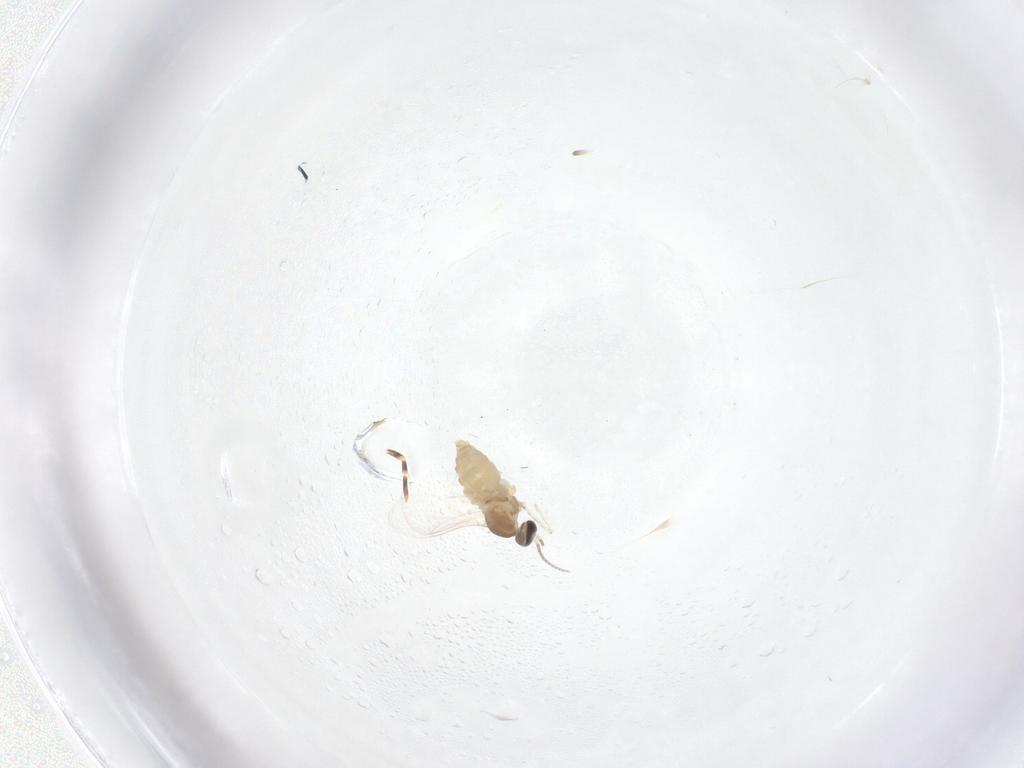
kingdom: Animalia
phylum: Arthropoda
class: Insecta
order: Diptera
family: Cecidomyiidae
